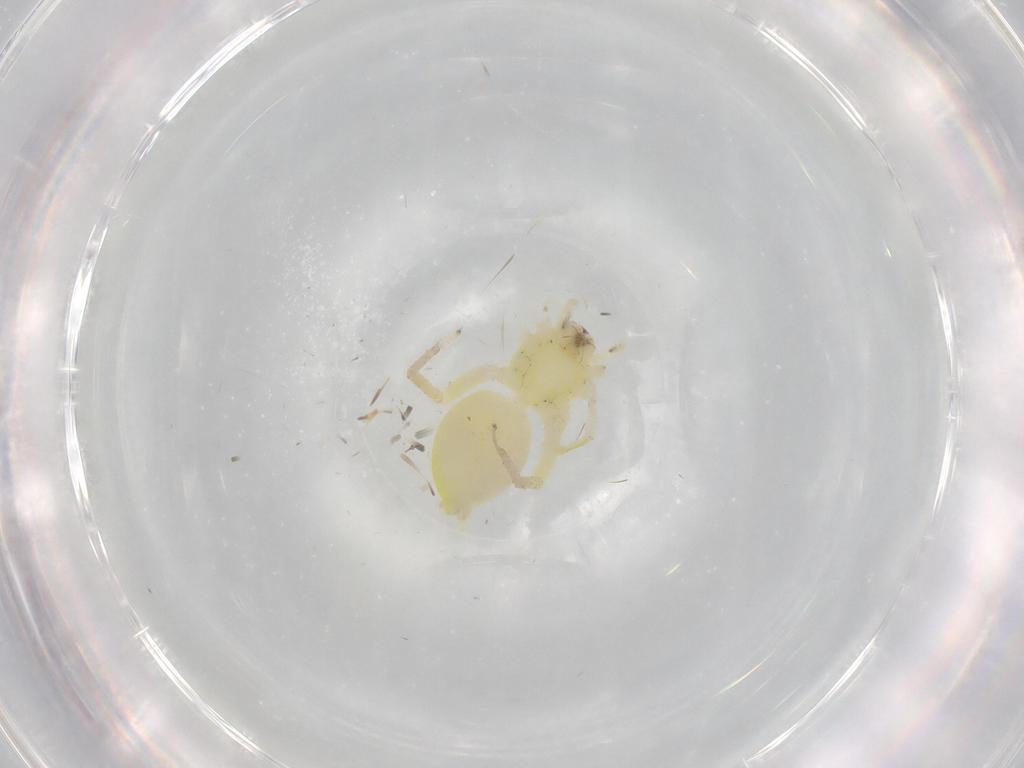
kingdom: Animalia
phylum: Arthropoda
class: Arachnida
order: Araneae
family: Anyphaenidae
